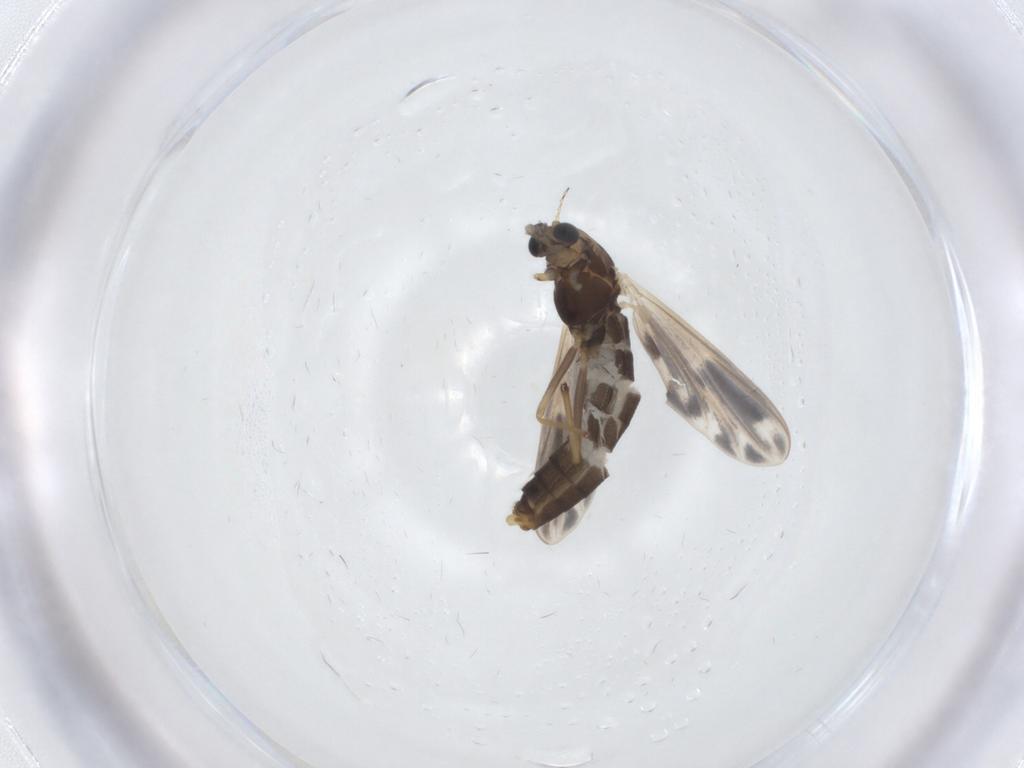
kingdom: Animalia
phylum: Arthropoda
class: Insecta
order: Diptera
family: Chironomidae
